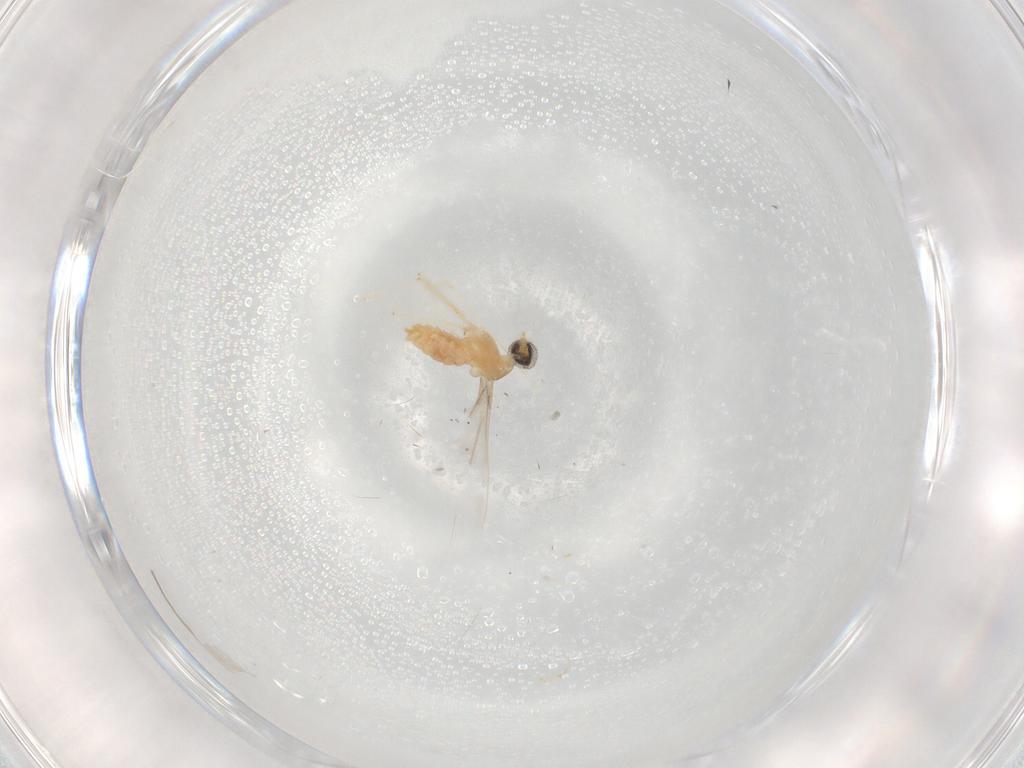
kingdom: Animalia
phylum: Arthropoda
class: Insecta
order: Diptera
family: Cecidomyiidae
